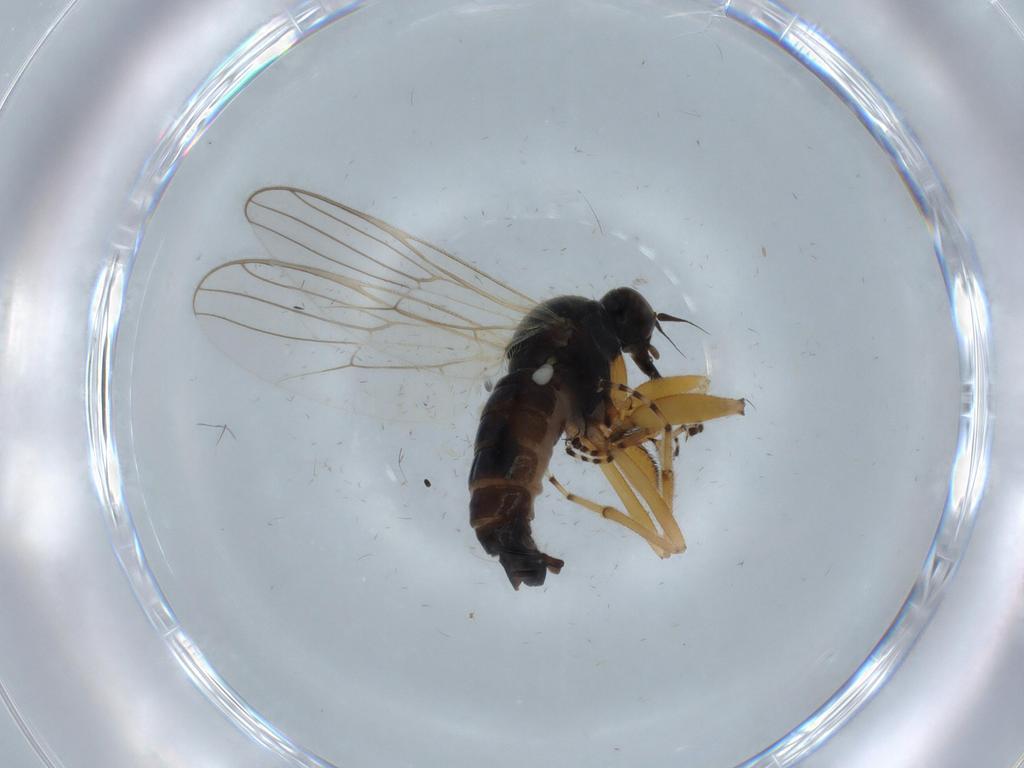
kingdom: Animalia
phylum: Arthropoda
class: Insecta
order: Diptera
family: Hybotidae
